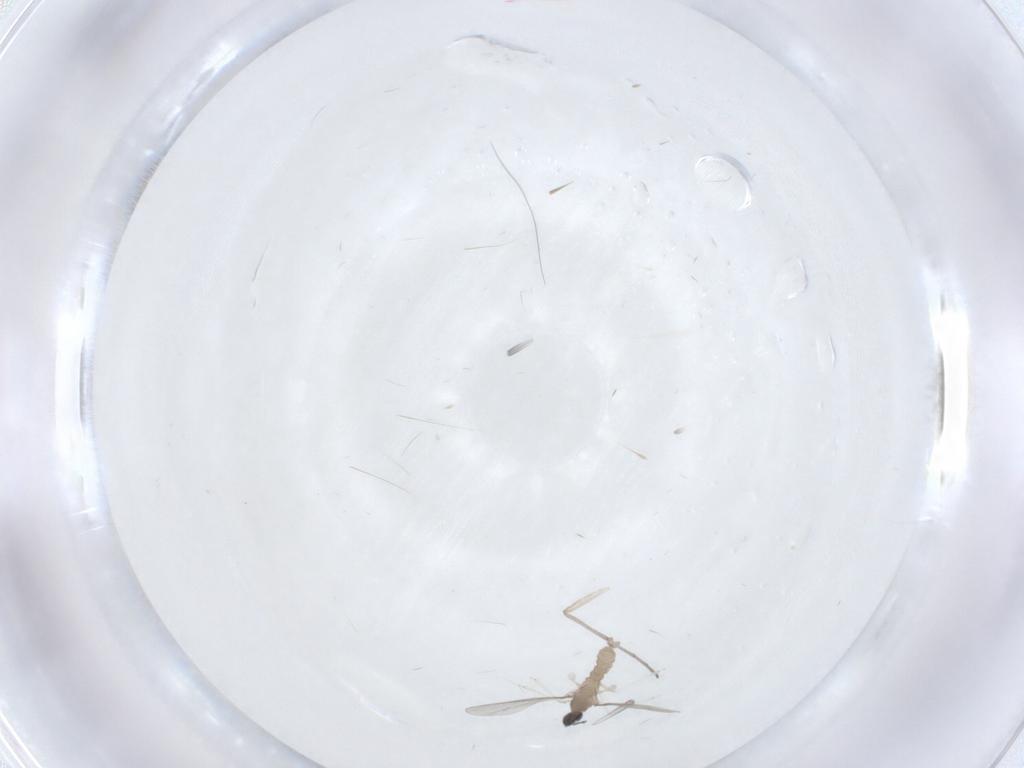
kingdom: Animalia
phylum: Arthropoda
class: Insecta
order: Diptera
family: Cecidomyiidae
